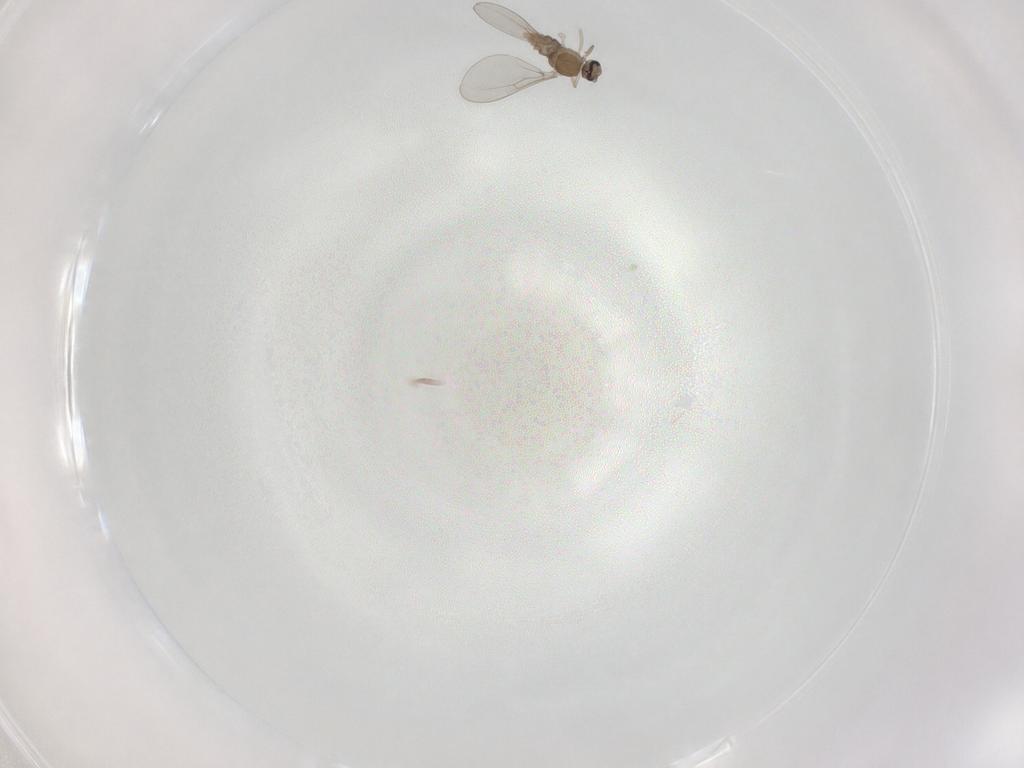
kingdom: Animalia
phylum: Arthropoda
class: Insecta
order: Diptera
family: Cecidomyiidae
